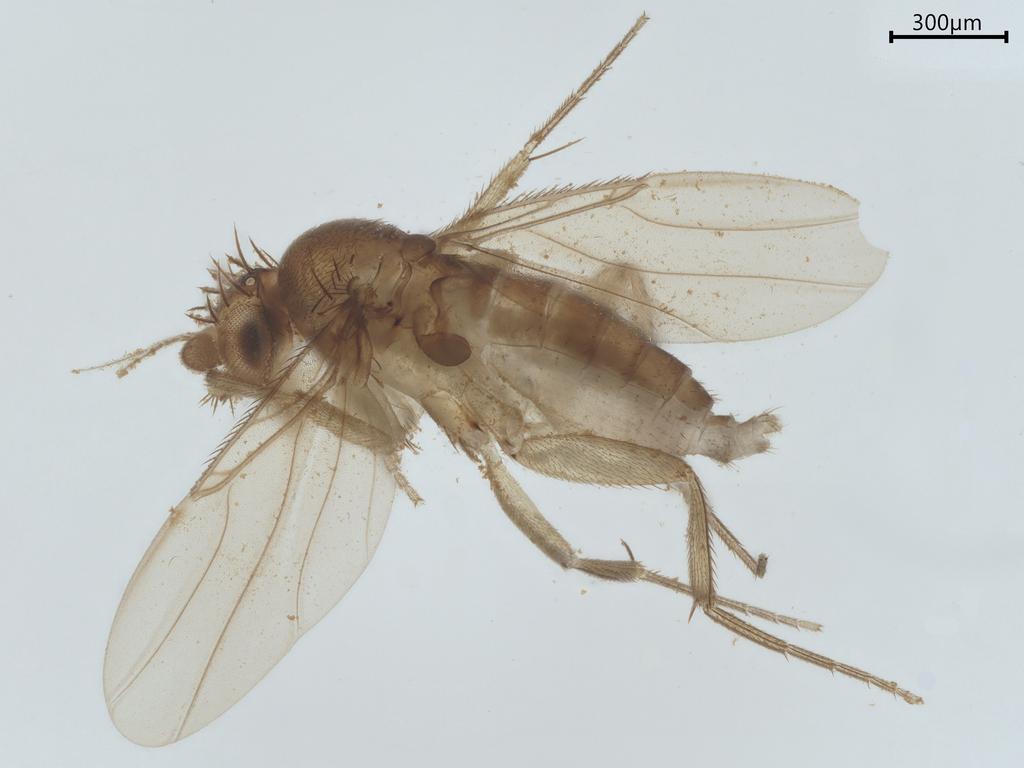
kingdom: Animalia
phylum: Arthropoda
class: Insecta
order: Diptera
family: Phoridae
